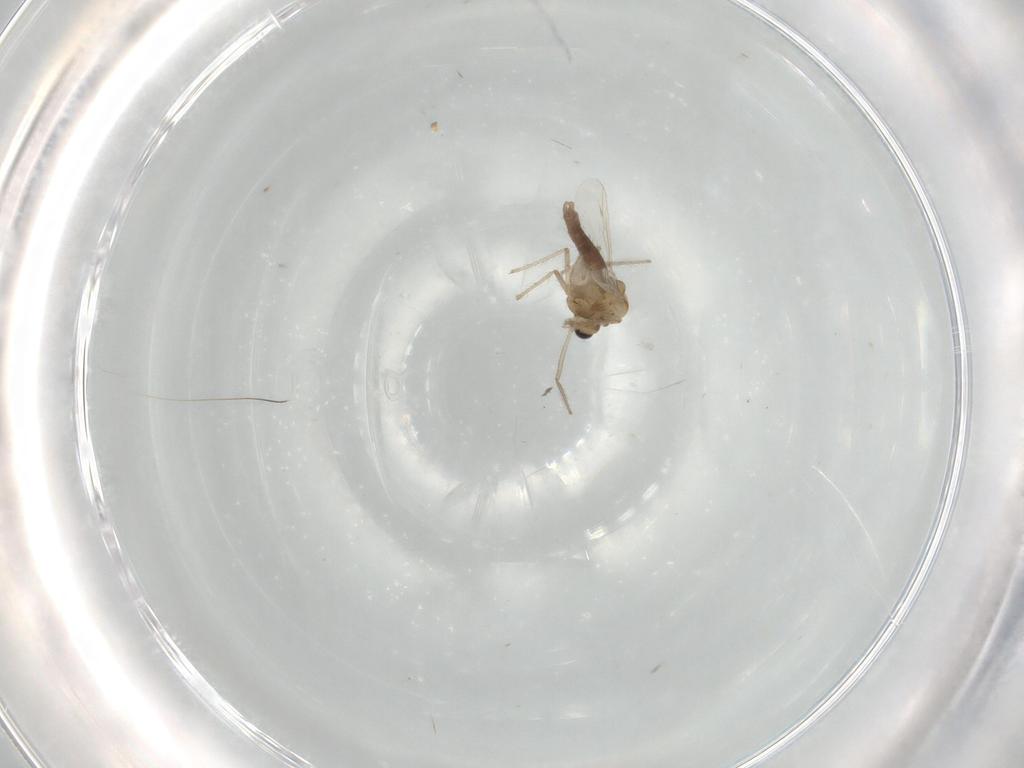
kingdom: Animalia
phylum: Arthropoda
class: Insecta
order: Diptera
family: Chironomidae
